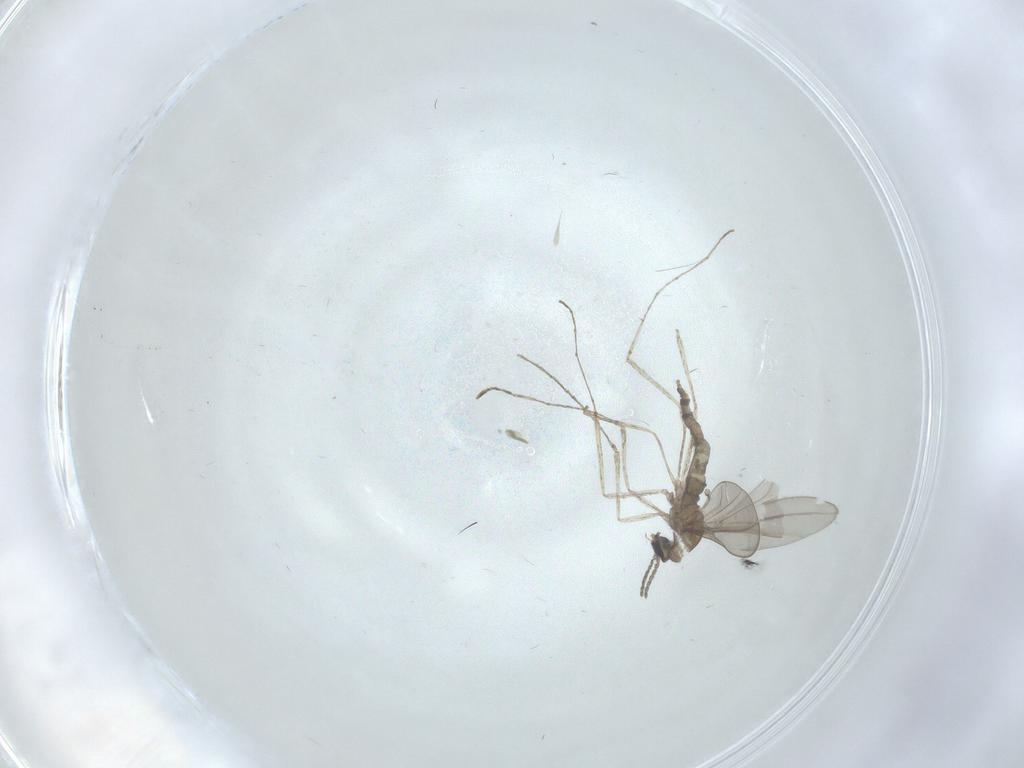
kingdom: Animalia
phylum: Arthropoda
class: Insecta
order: Diptera
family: Cecidomyiidae
